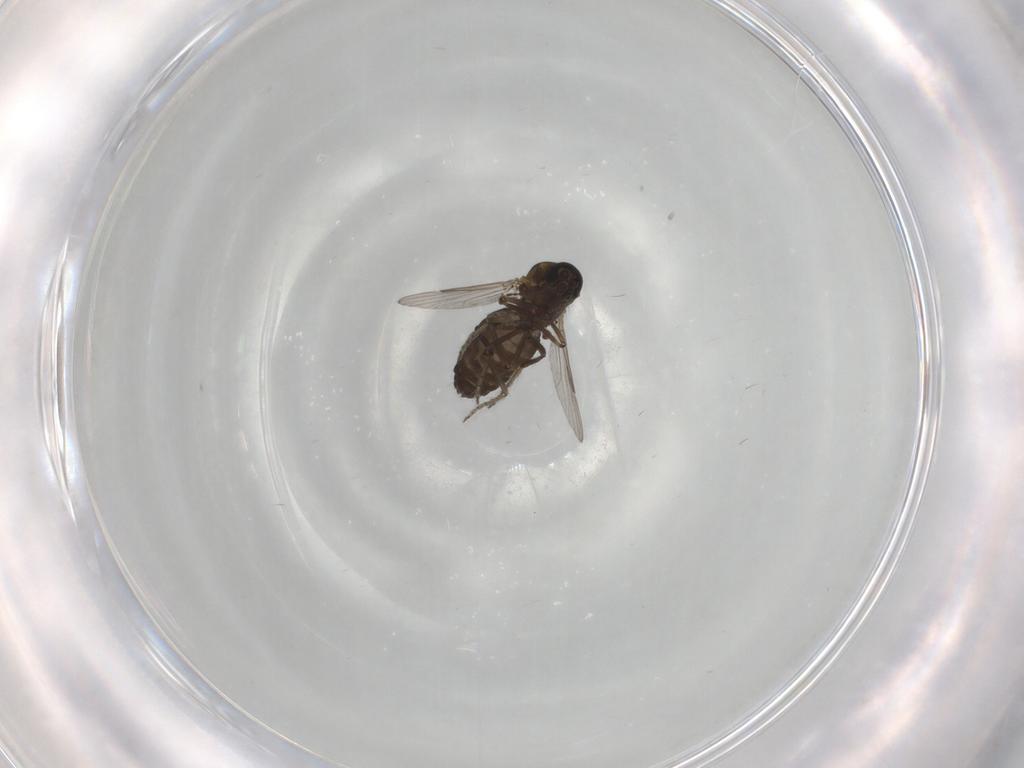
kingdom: Animalia
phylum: Arthropoda
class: Insecta
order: Diptera
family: Ceratopogonidae
